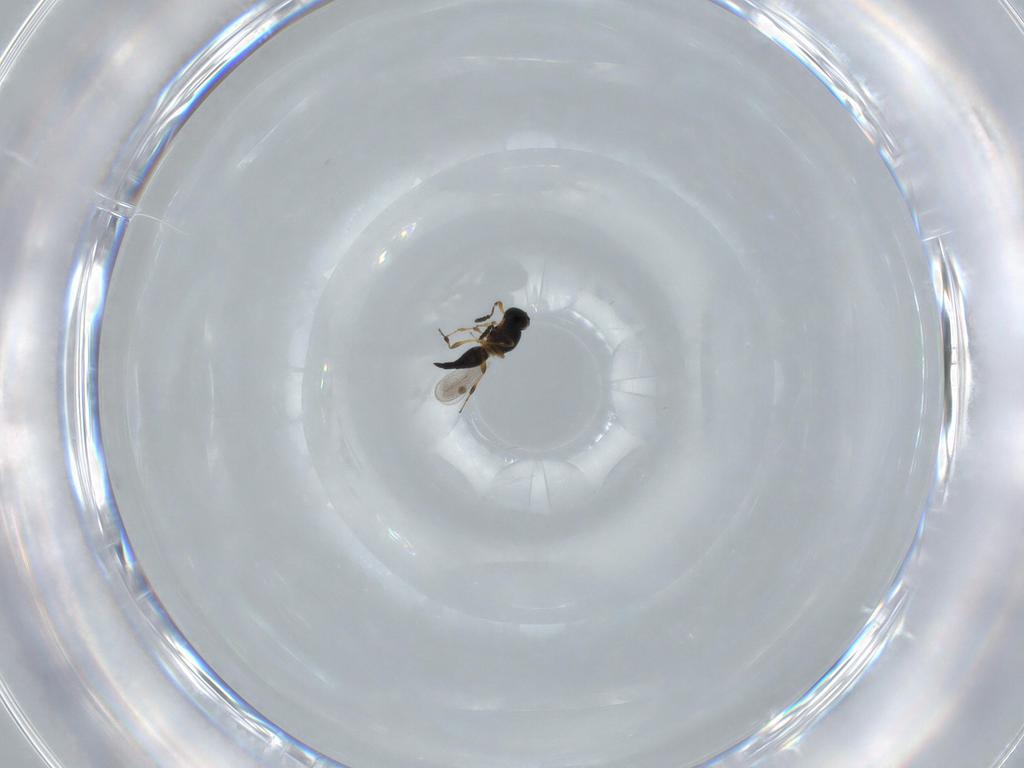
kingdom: Animalia
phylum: Arthropoda
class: Insecta
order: Hymenoptera
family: Platygastridae
